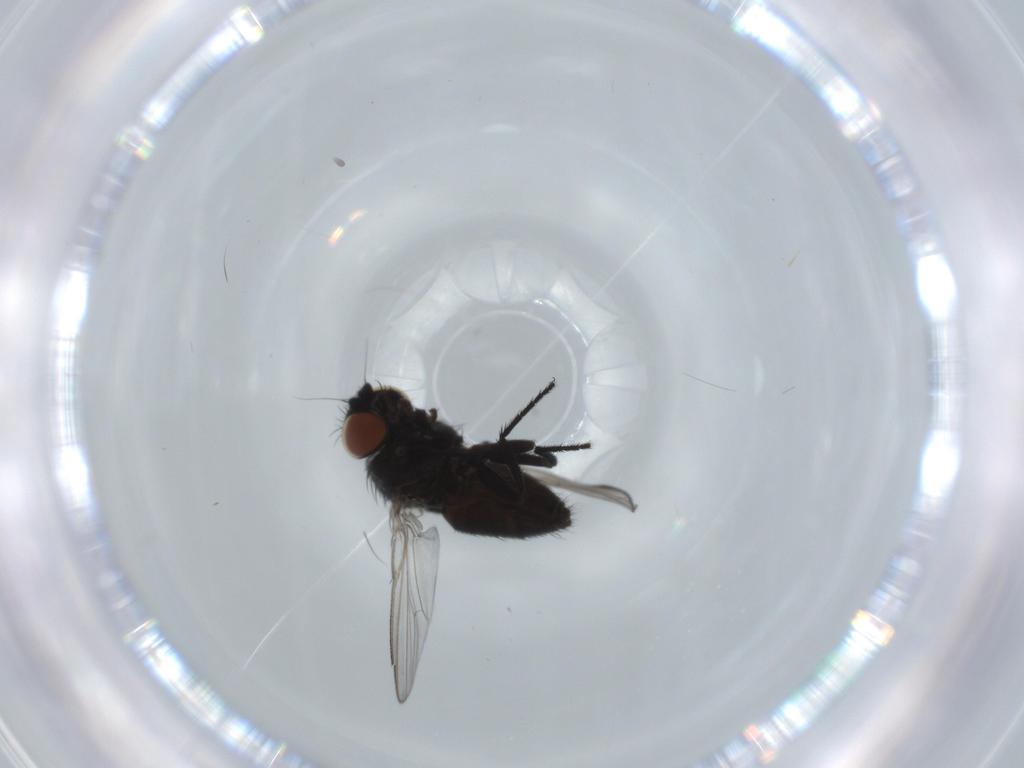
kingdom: Animalia
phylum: Arthropoda
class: Insecta
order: Diptera
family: Milichiidae
